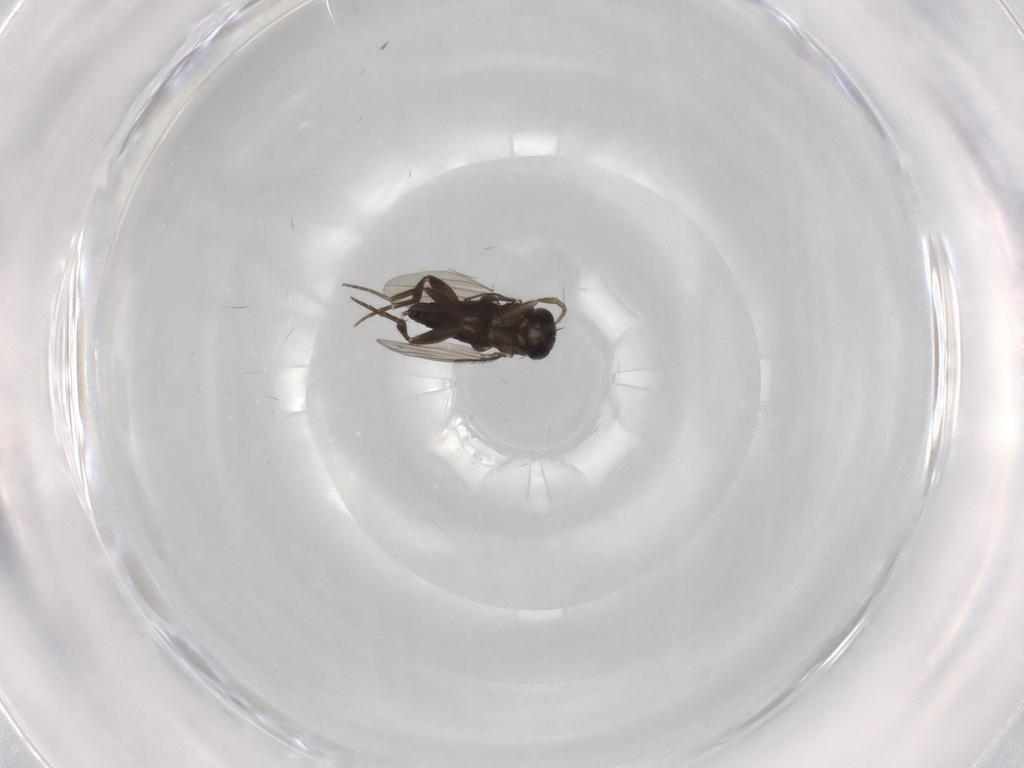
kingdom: Animalia
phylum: Arthropoda
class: Insecta
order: Diptera
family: Phoridae
